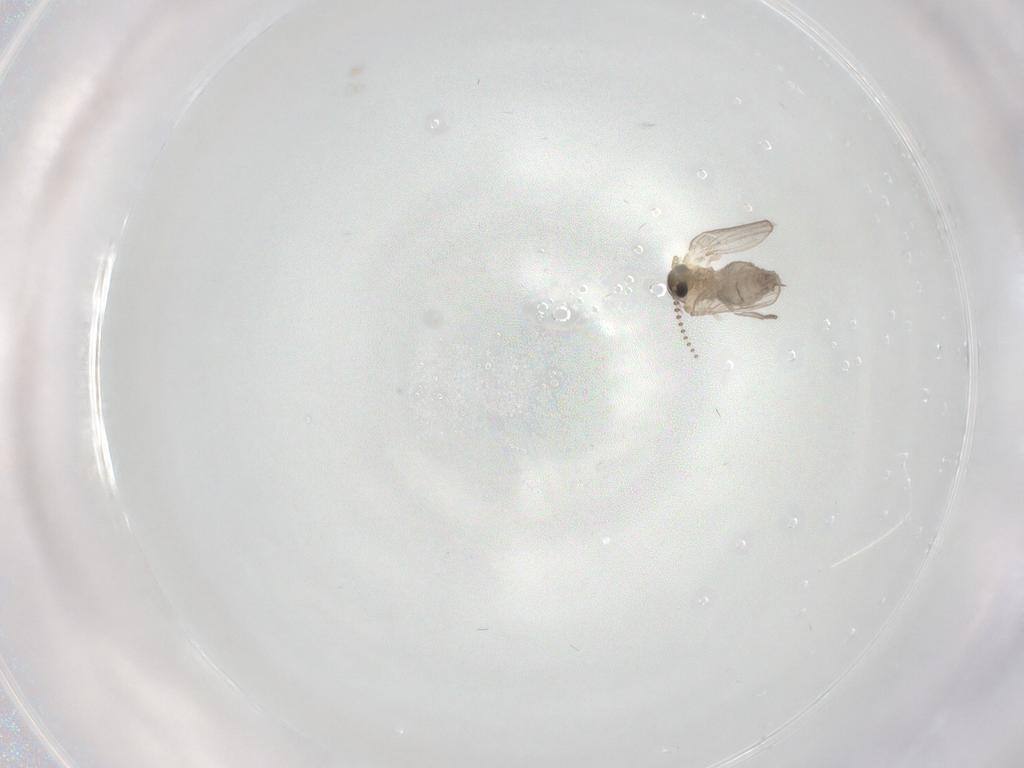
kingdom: Animalia
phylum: Arthropoda
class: Insecta
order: Diptera
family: Psychodidae
